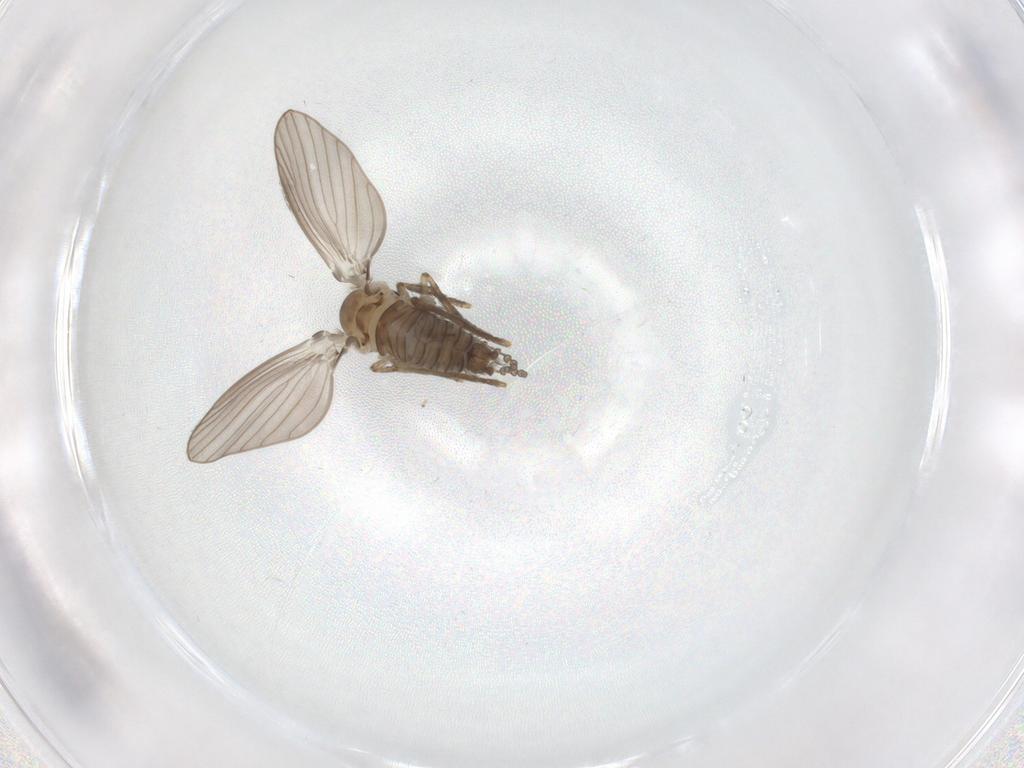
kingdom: Animalia
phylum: Arthropoda
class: Insecta
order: Diptera
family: Psychodidae
